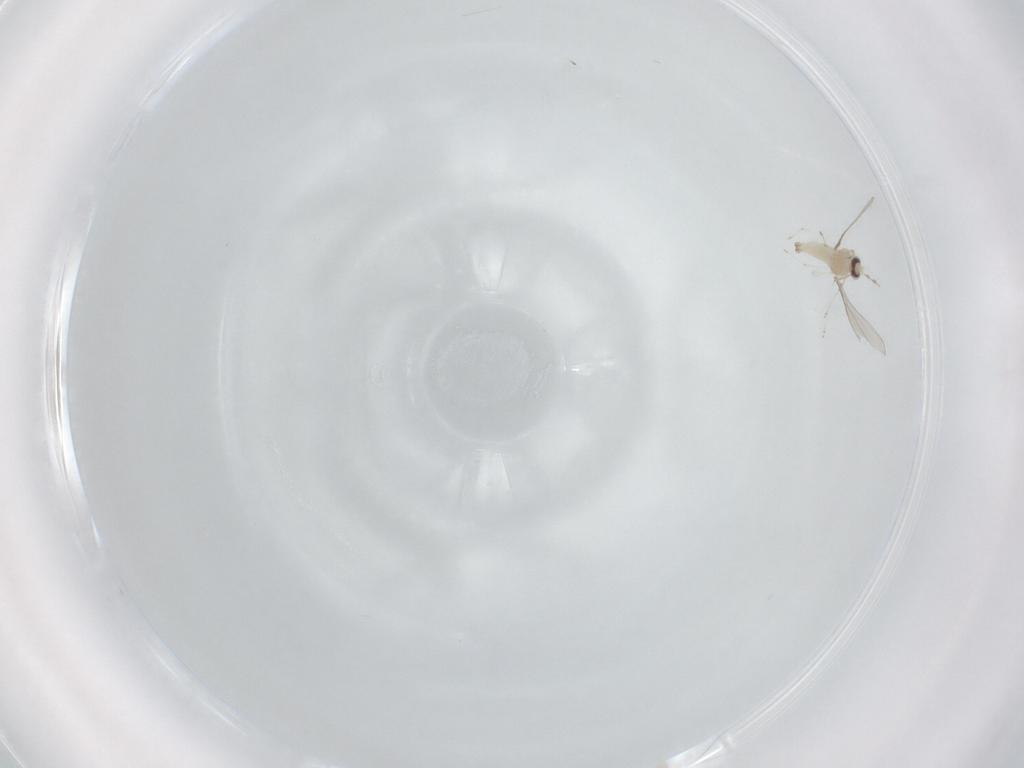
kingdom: Animalia
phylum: Arthropoda
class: Insecta
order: Diptera
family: Cecidomyiidae
